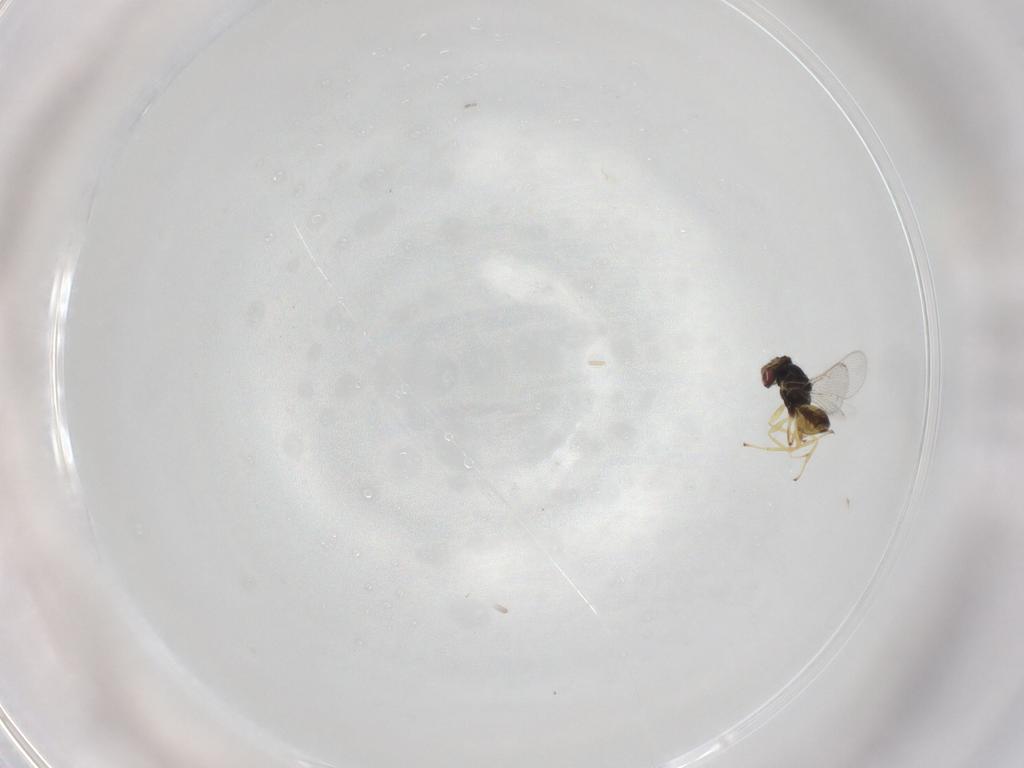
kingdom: Animalia
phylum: Arthropoda
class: Insecta
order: Hymenoptera
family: Eulophidae
